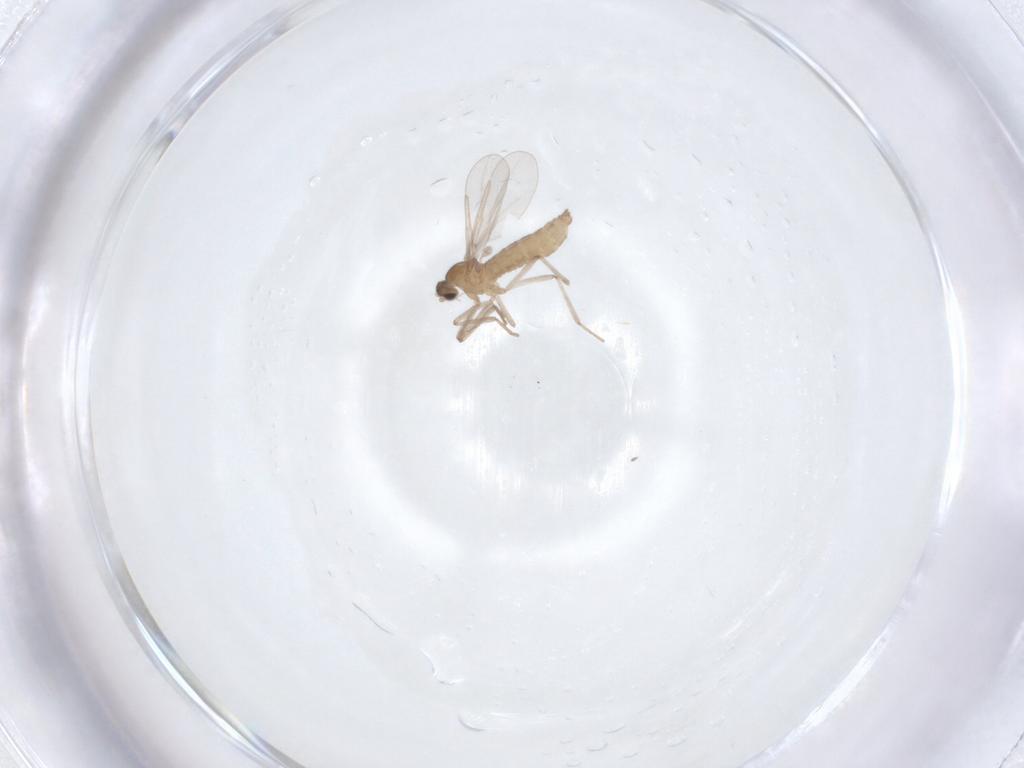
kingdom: Animalia
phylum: Arthropoda
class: Insecta
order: Diptera
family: Cecidomyiidae
